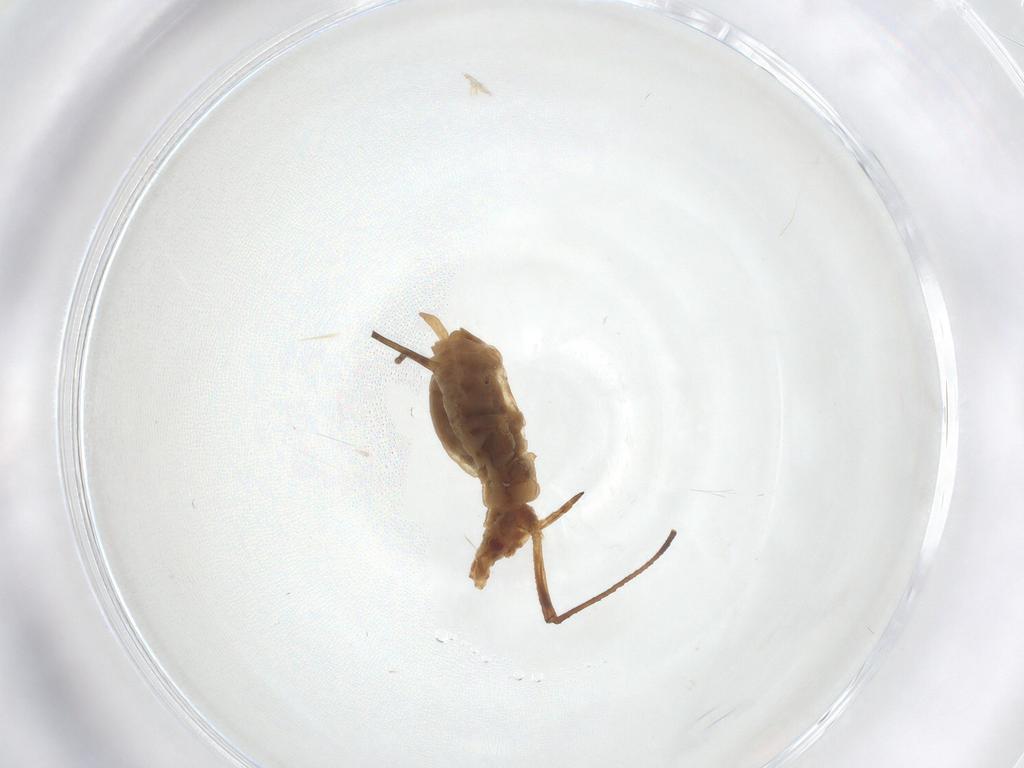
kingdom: Animalia
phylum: Arthropoda
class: Insecta
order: Hemiptera
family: Aphididae
